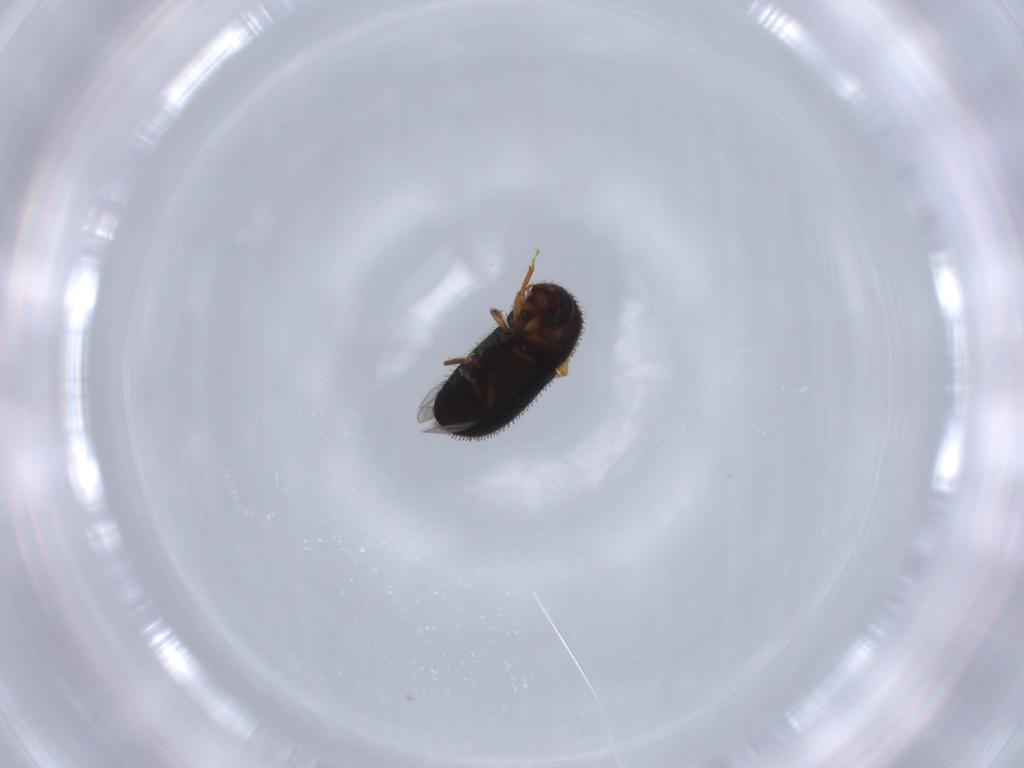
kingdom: Animalia
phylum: Arthropoda
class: Insecta
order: Coleoptera
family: Curculionidae
